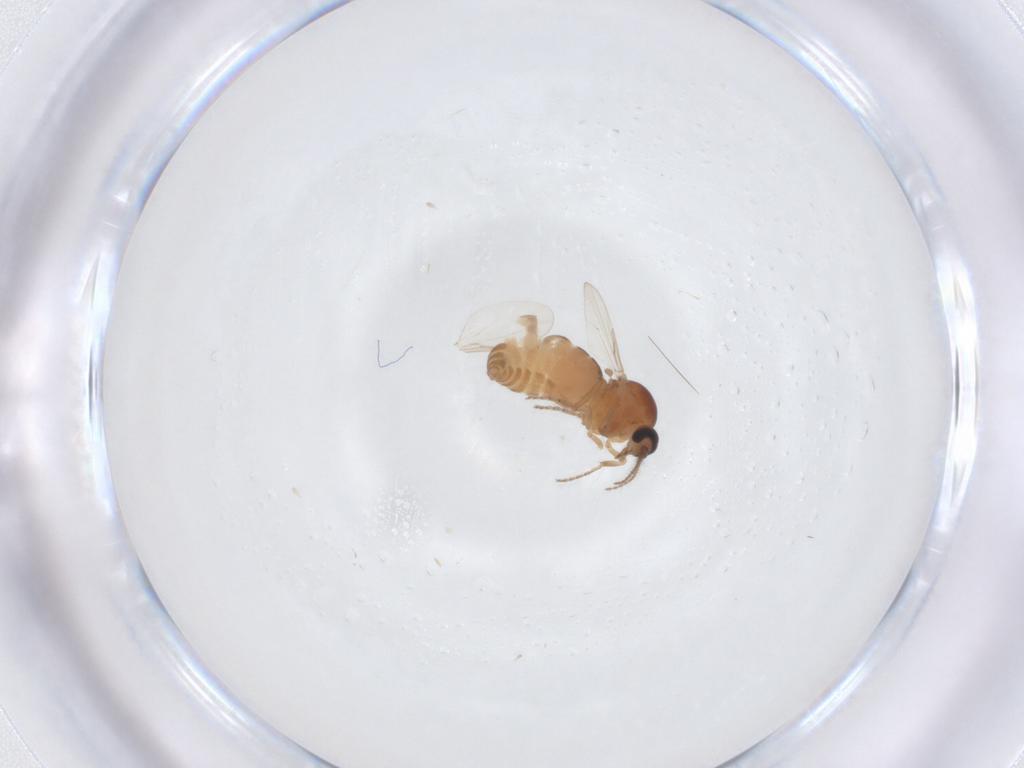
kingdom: Animalia
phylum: Arthropoda
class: Insecta
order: Diptera
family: Ceratopogonidae
